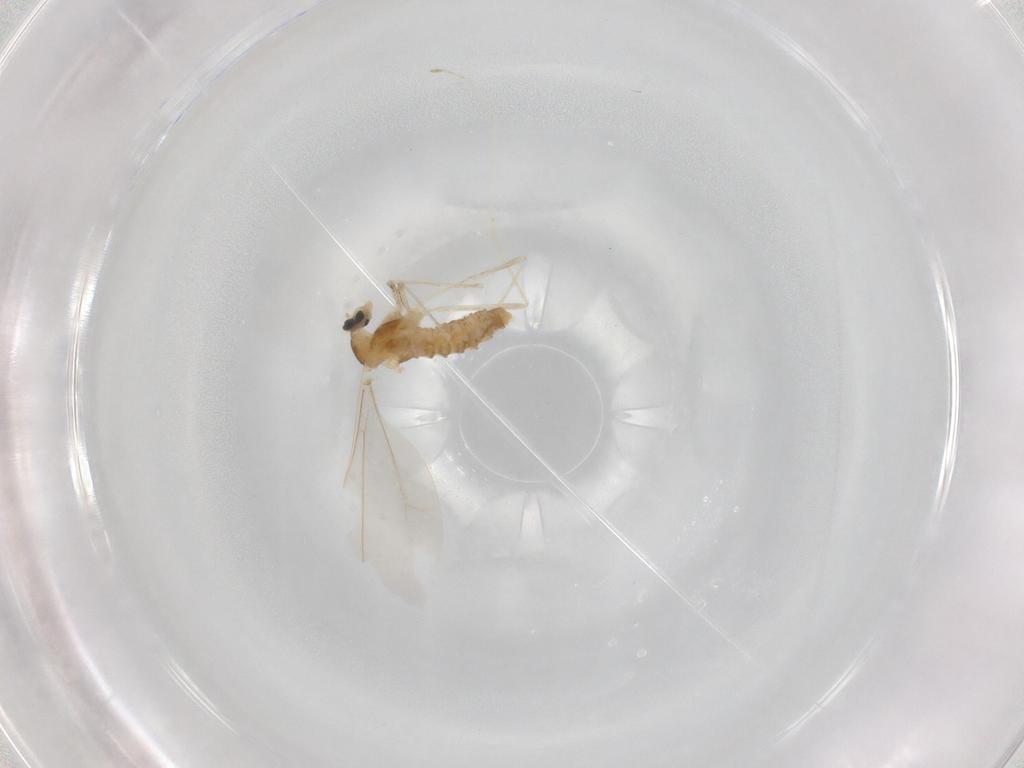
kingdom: Animalia
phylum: Arthropoda
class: Insecta
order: Diptera
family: Cecidomyiidae
